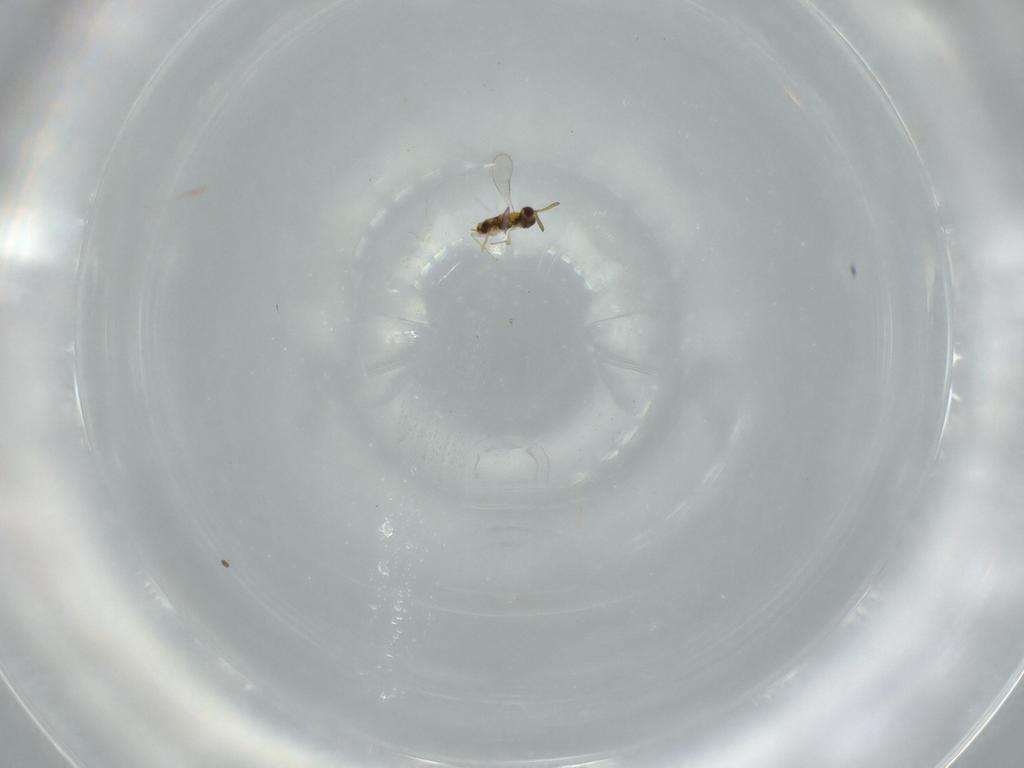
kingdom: Animalia
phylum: Arthropoda
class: Insecta
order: Hymenoptera
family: Aphelinidae
